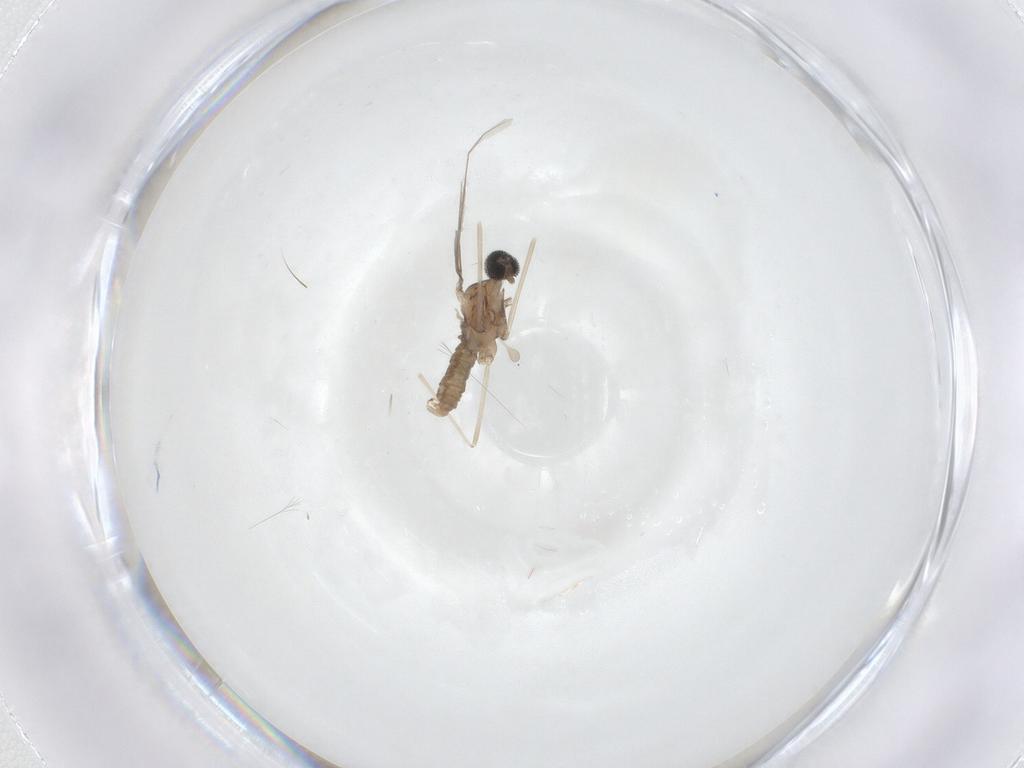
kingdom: Animalia
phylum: Arthropoda
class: Insecta
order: Diptera
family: Cecidomyiidae
